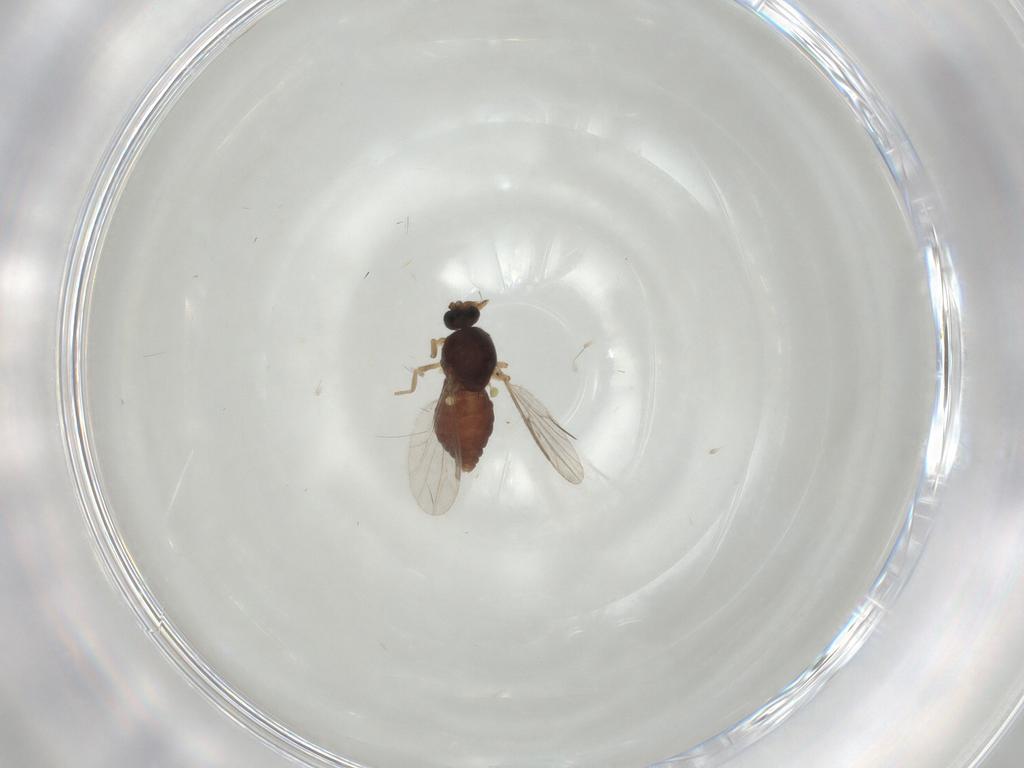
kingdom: Animalia
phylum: Arthropoda
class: Insecta
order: Diptera
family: Ceratopogonidae
